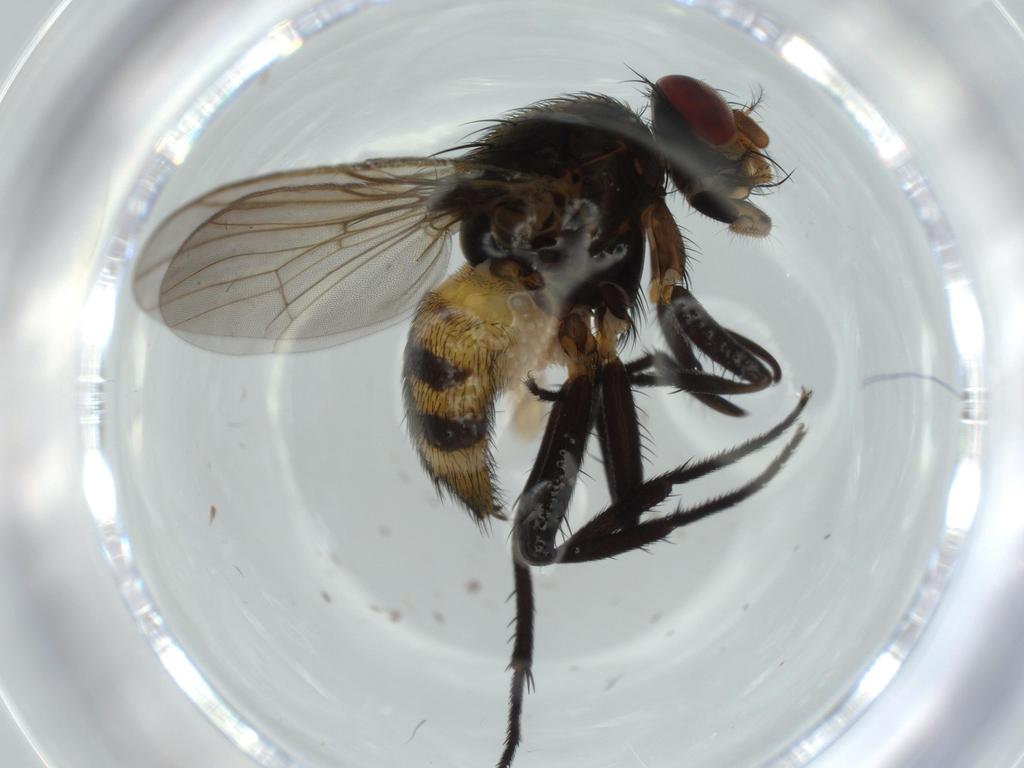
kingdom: Animalia
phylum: Arthropoda
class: Insecta
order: Diptera
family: Anthomyiidae
